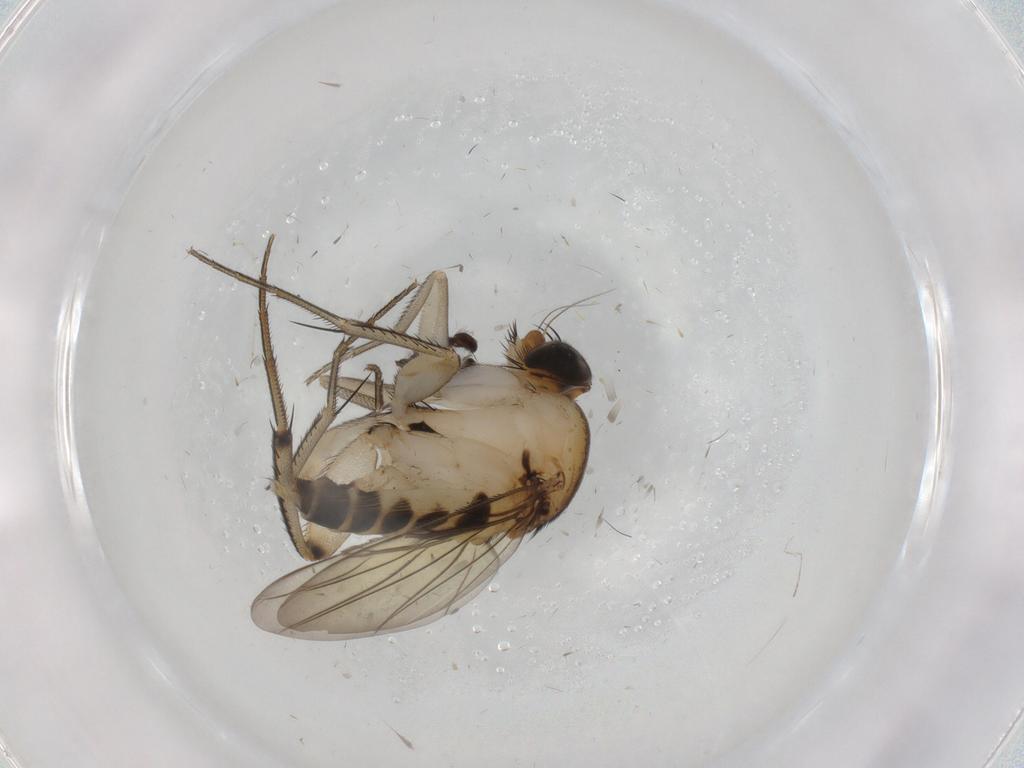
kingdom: Animalia
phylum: Arthropoda
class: Insecta
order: Diptera
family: Phoridae
